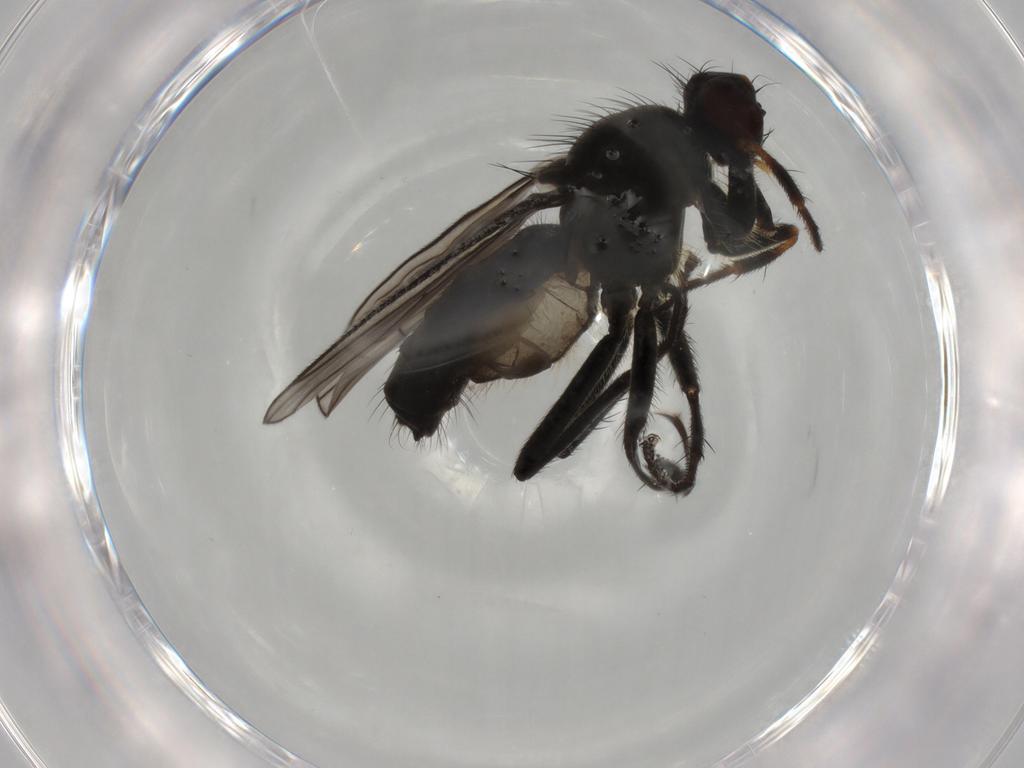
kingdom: Animalia
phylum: Arthropoda
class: Insecta
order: Diptera
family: Scathophagidae
